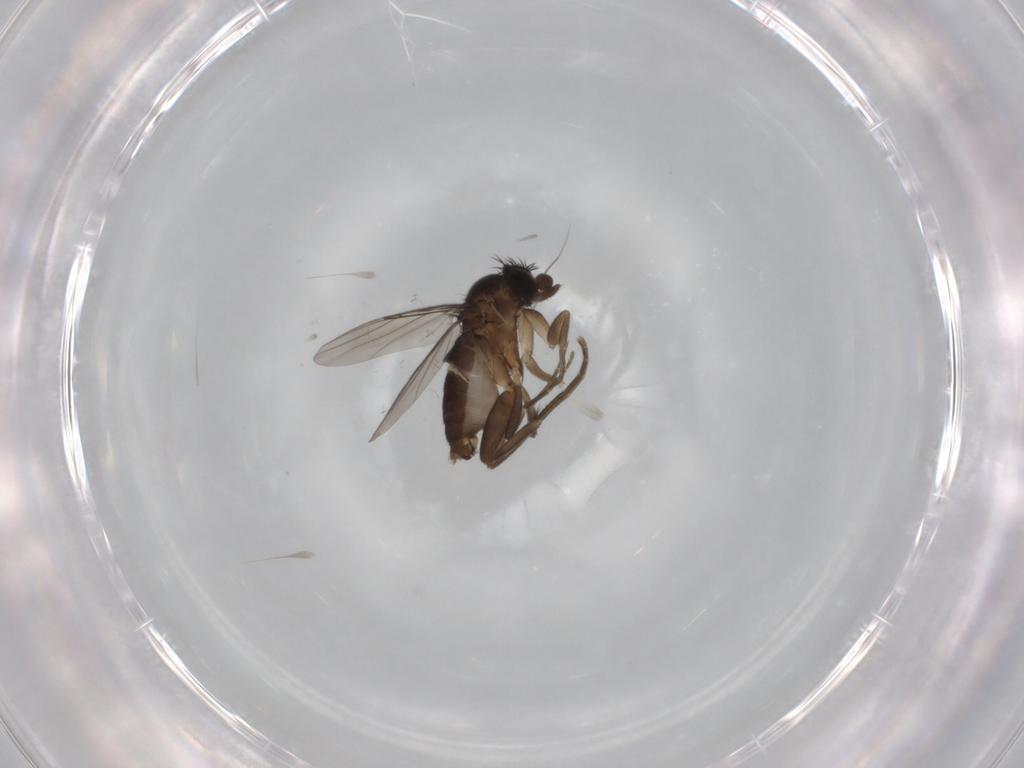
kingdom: Animalia
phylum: Arthropoda
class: Insecta
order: Diptera
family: Phoridae
